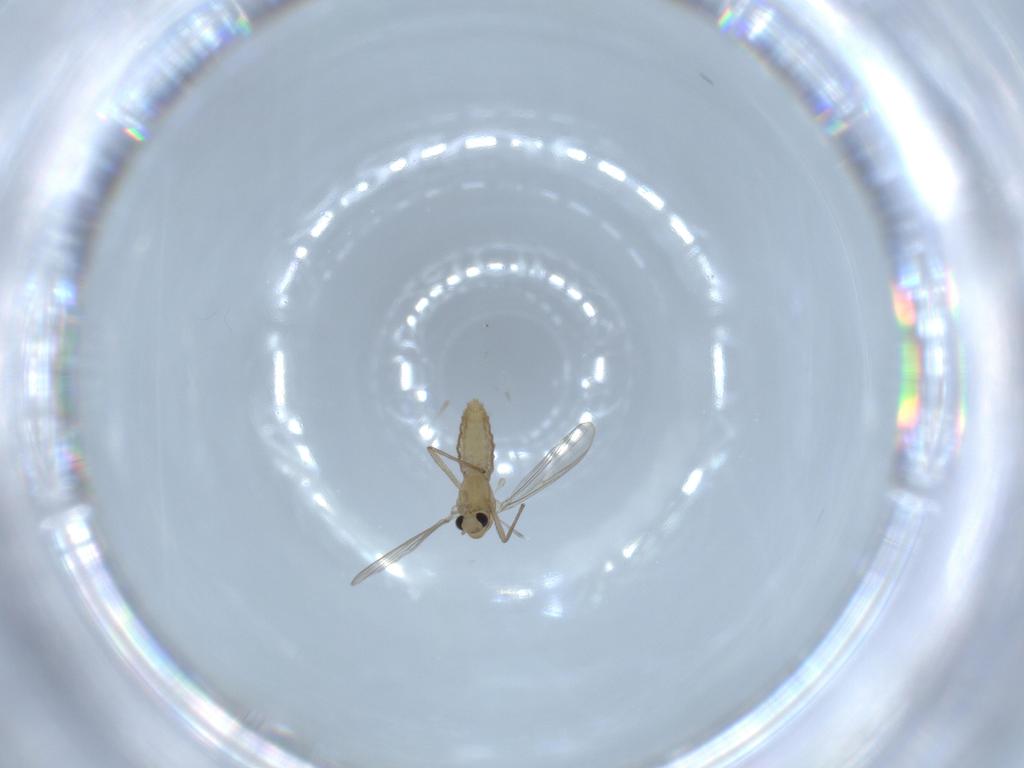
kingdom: Animalia
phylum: Arthropoda
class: Insecta
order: Diptera
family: Chironomidae
